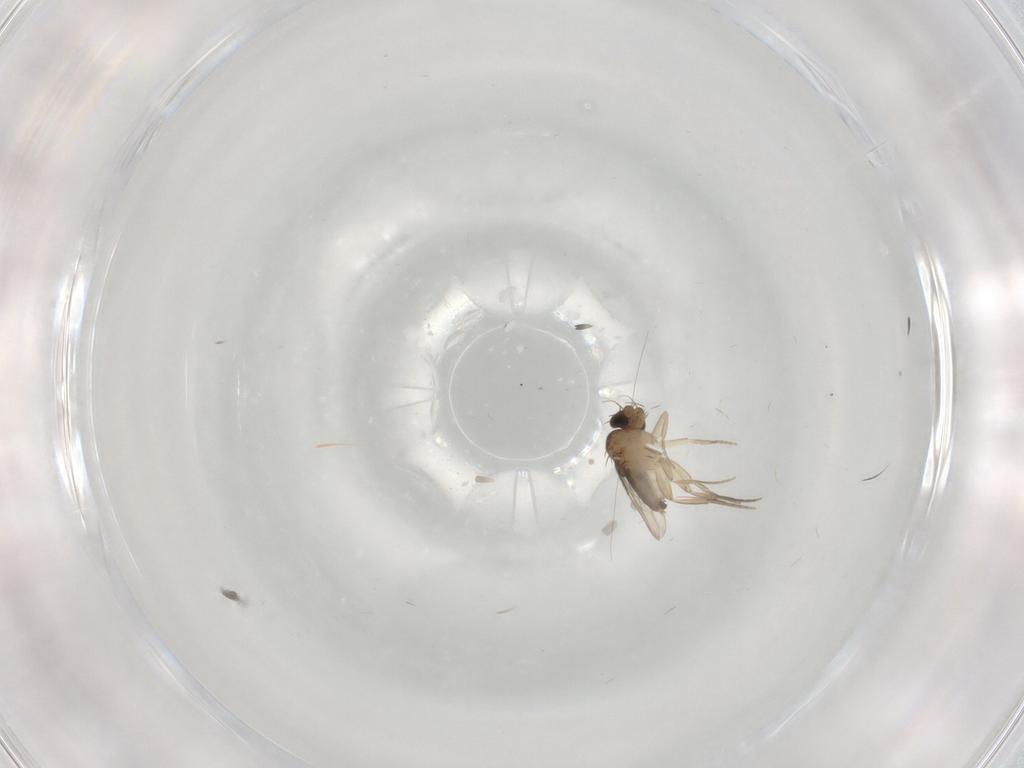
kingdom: Animalia
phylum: Arthropoda
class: Insecta
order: Diptera
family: Phoridae
